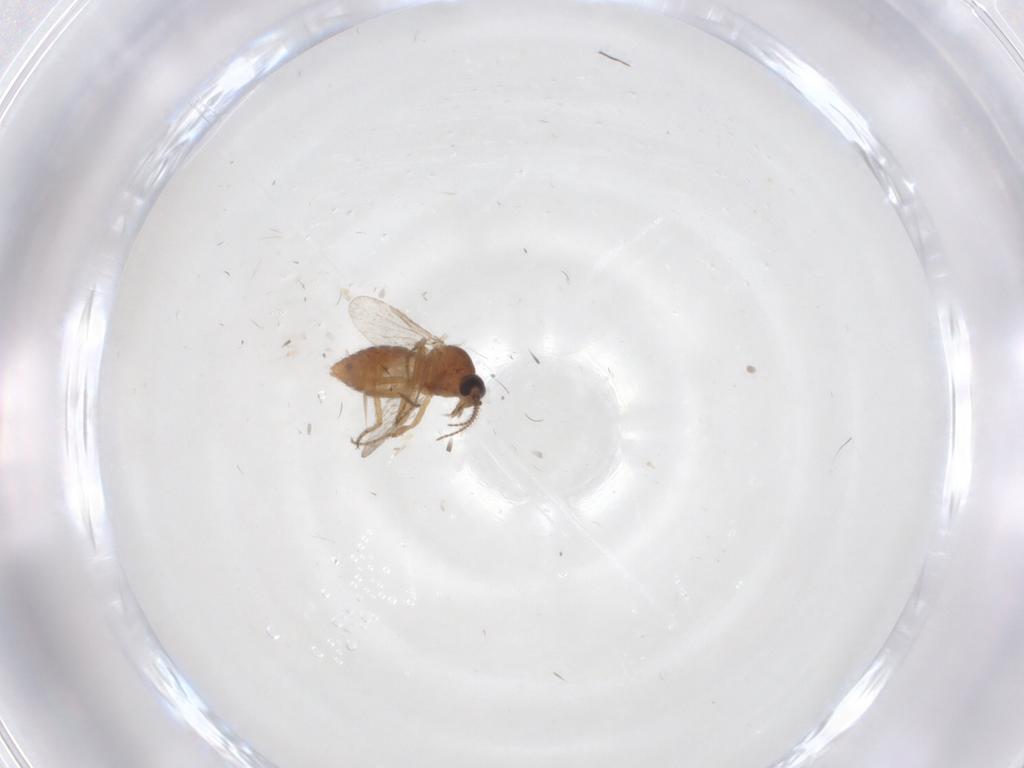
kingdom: Animalia
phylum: Arthropoda
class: Insecta
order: Diptera
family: Ceratopogonidae
